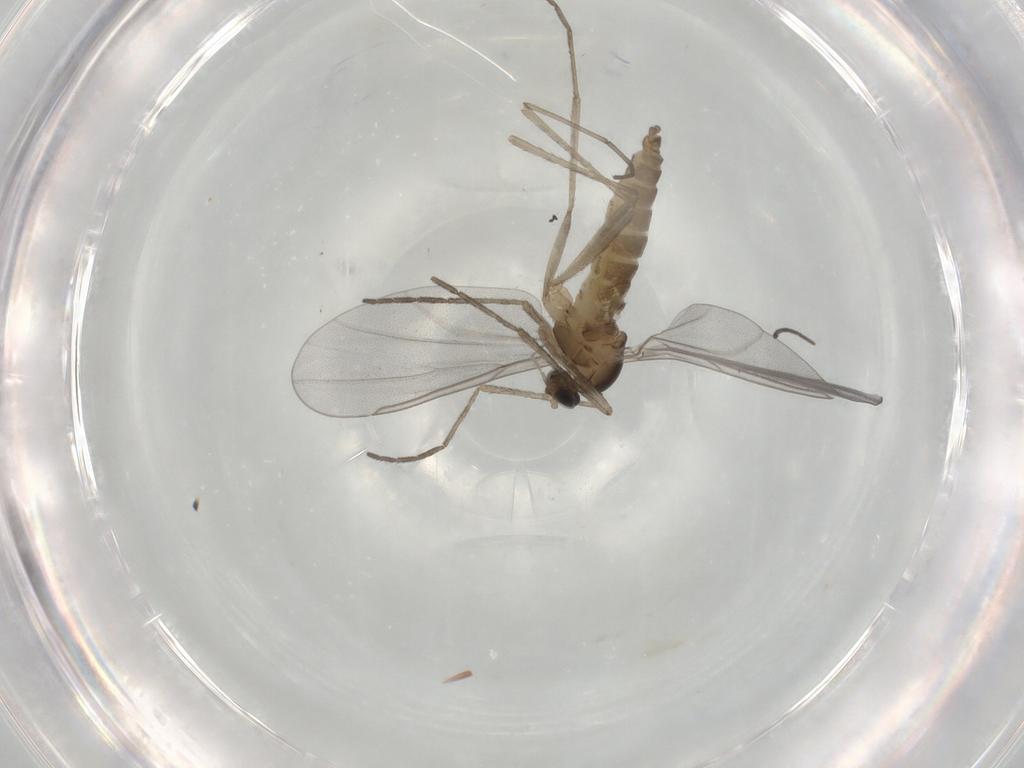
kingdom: Animalia
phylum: Arthropoda
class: Insecta
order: Diptera
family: Cecidomyiidae
